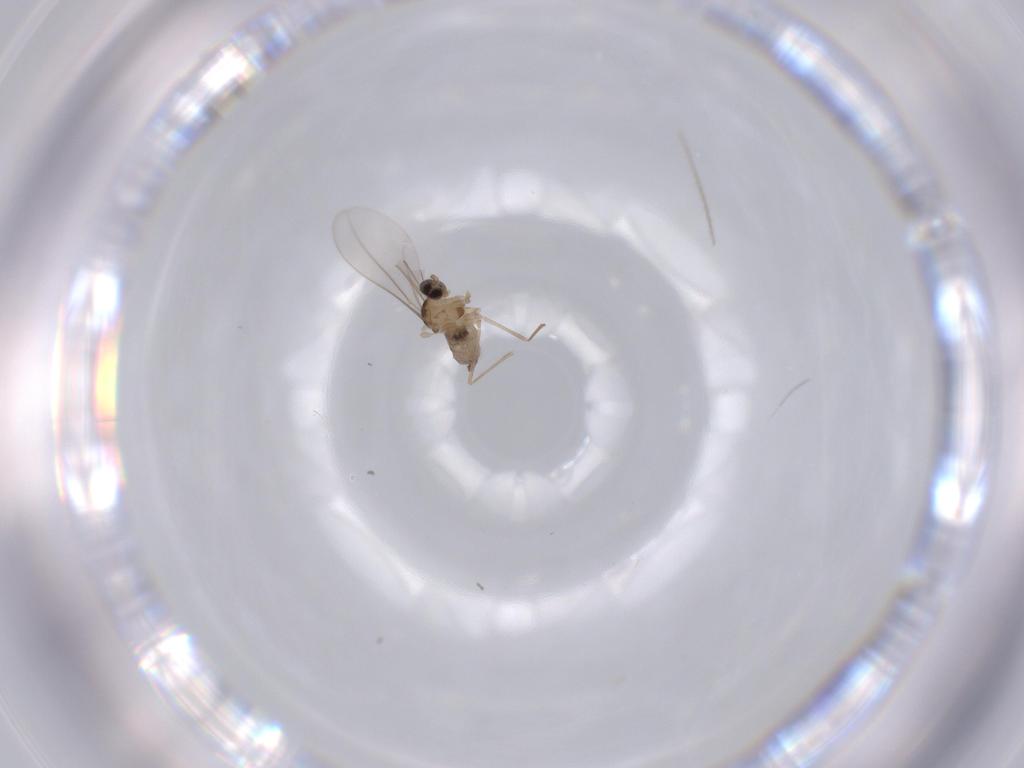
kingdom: Animalia
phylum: Arthropoda
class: Insecta
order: Diptera
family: Cecidomyiidae
